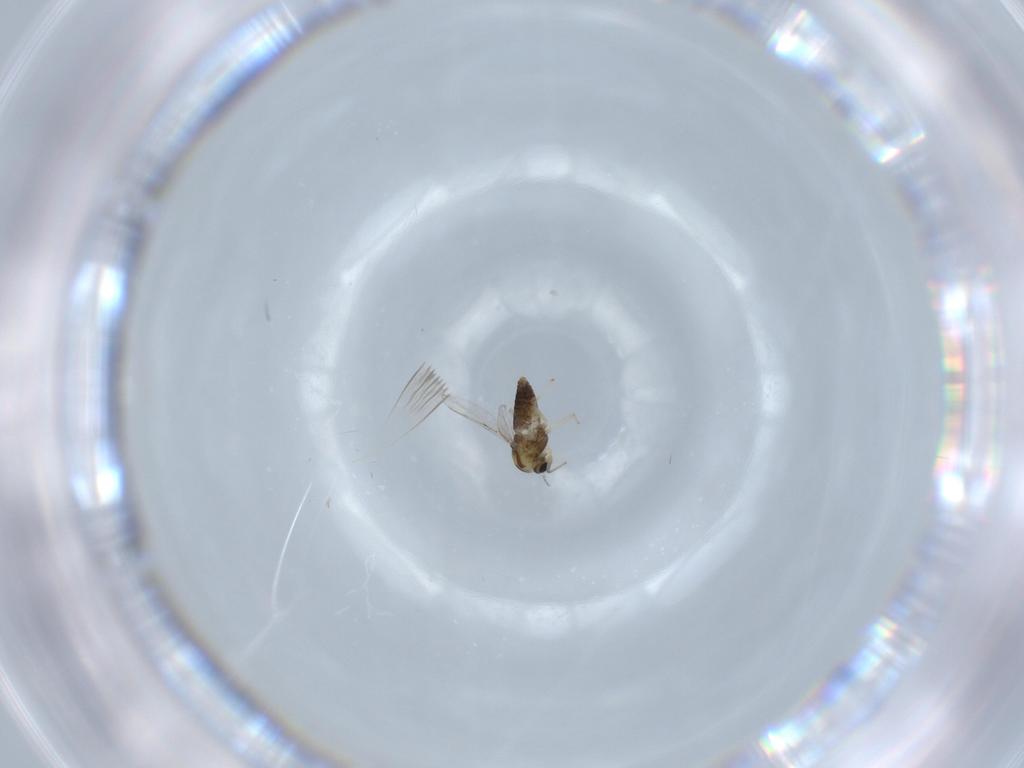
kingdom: Animalia
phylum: Arthropoda
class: Insecta
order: Diptera
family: Chironomidae
